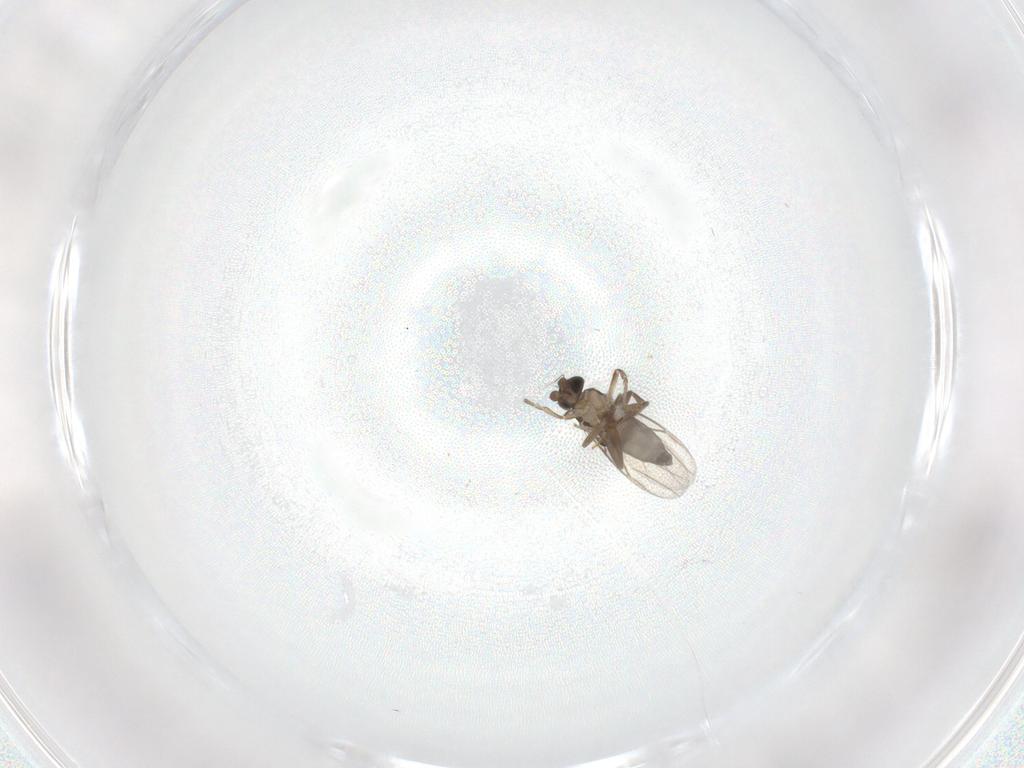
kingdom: Animalia
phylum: Arthropoda
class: Insecta
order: Diptera
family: Phoridae
